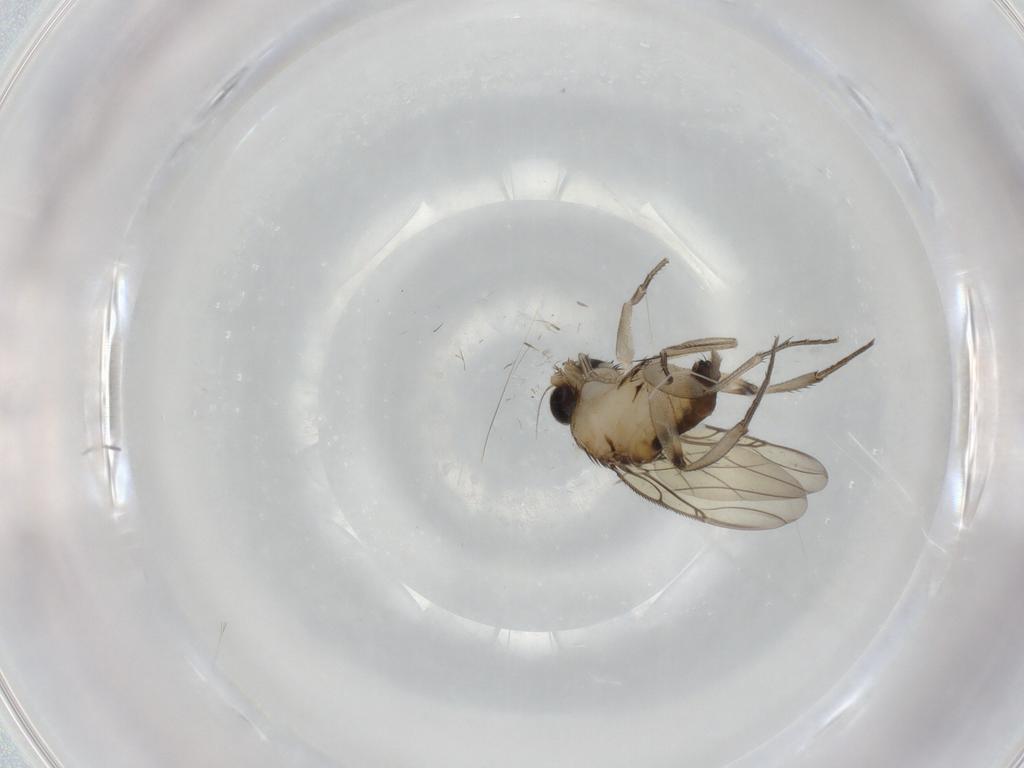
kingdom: Animalia
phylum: Arthropoda
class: Insecta
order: Diptera
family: Phoridae
